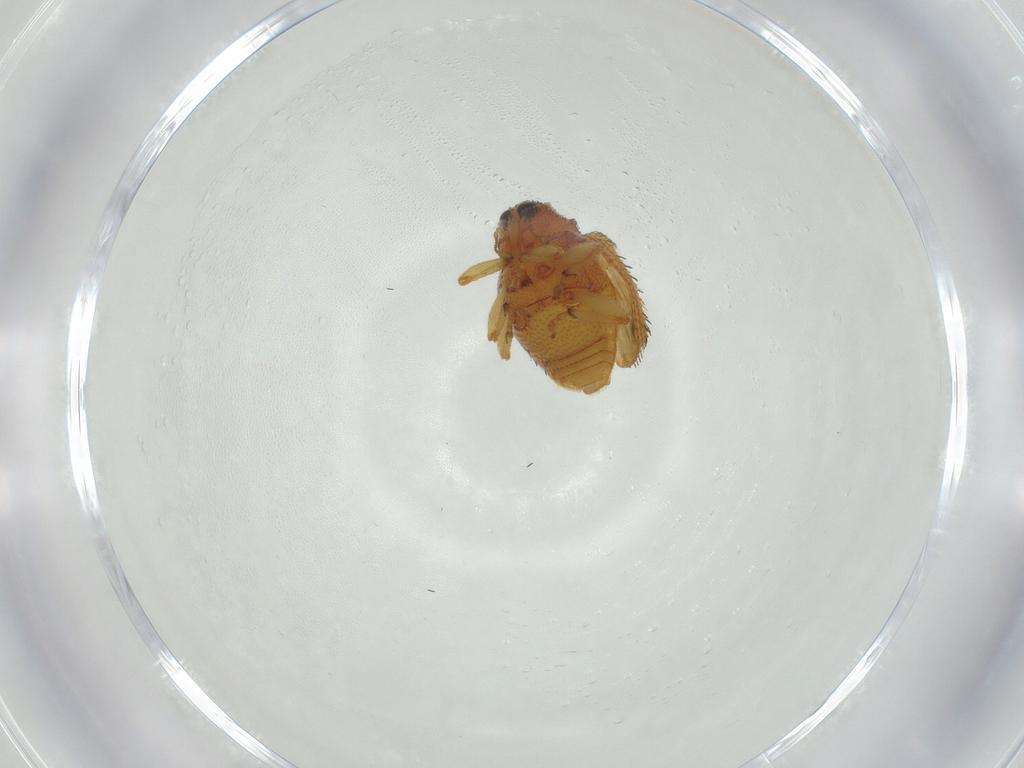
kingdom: Animalia
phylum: Arthropoda
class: Insecta
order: Coleoptera
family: Curculionidae
